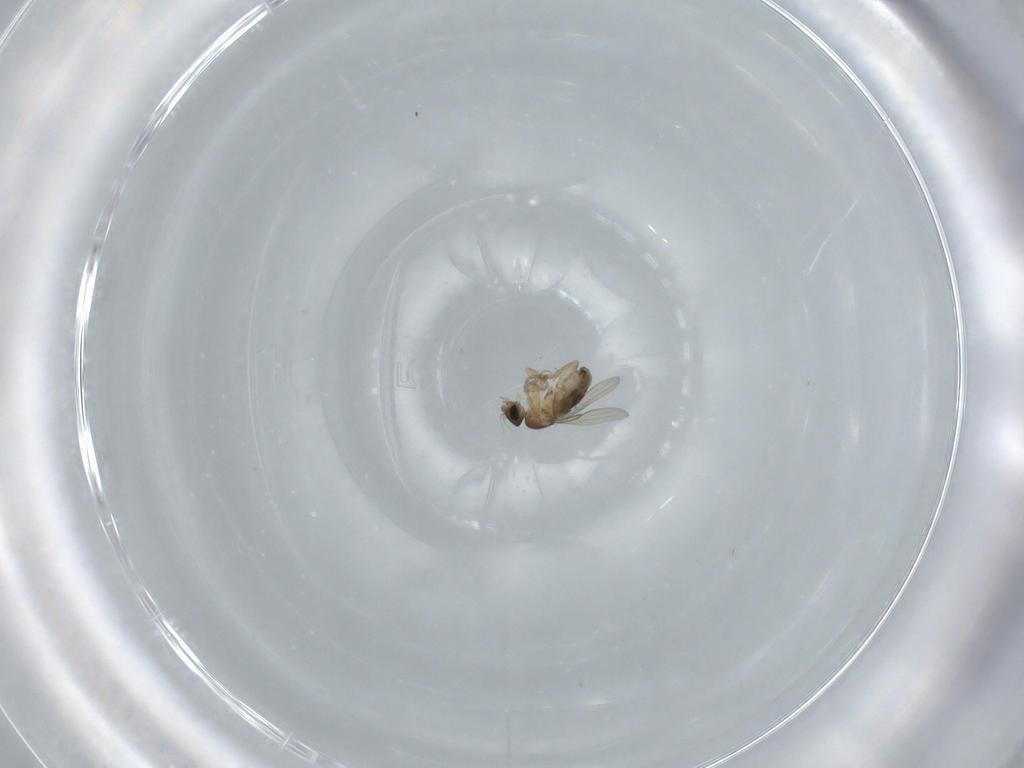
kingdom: Animalia
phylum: Arthropoda
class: Insecta
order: Diptera
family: Phoridae
